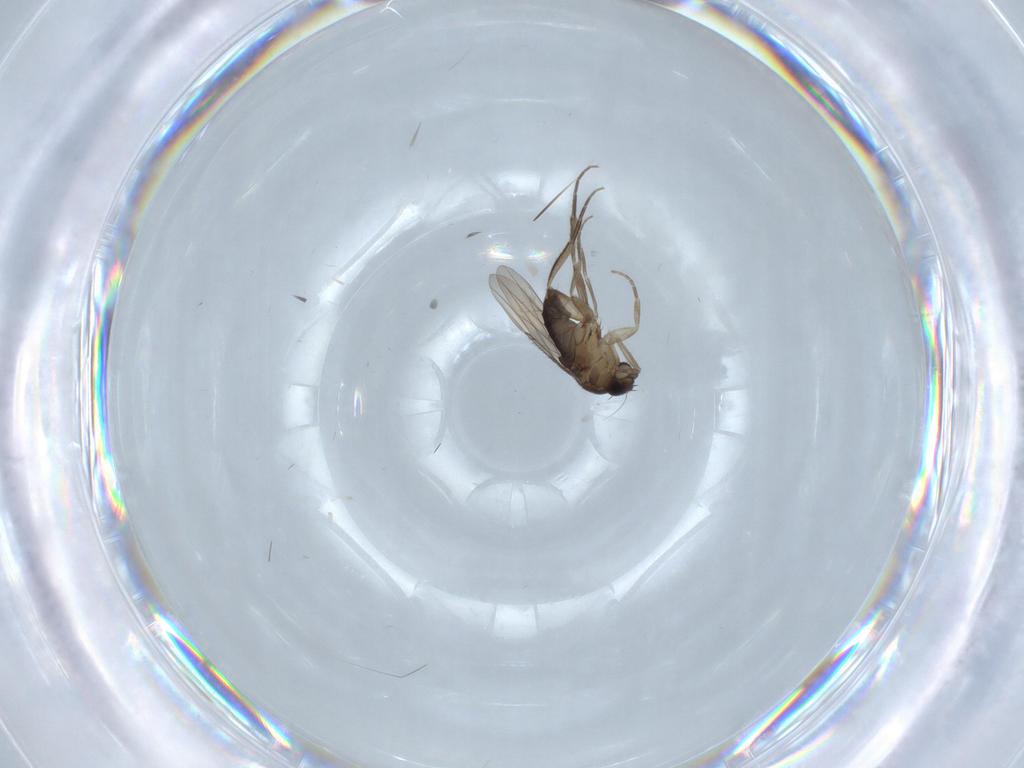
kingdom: Animalia
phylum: Arthropoda
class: Insecta
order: Diptera
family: Phoridae
